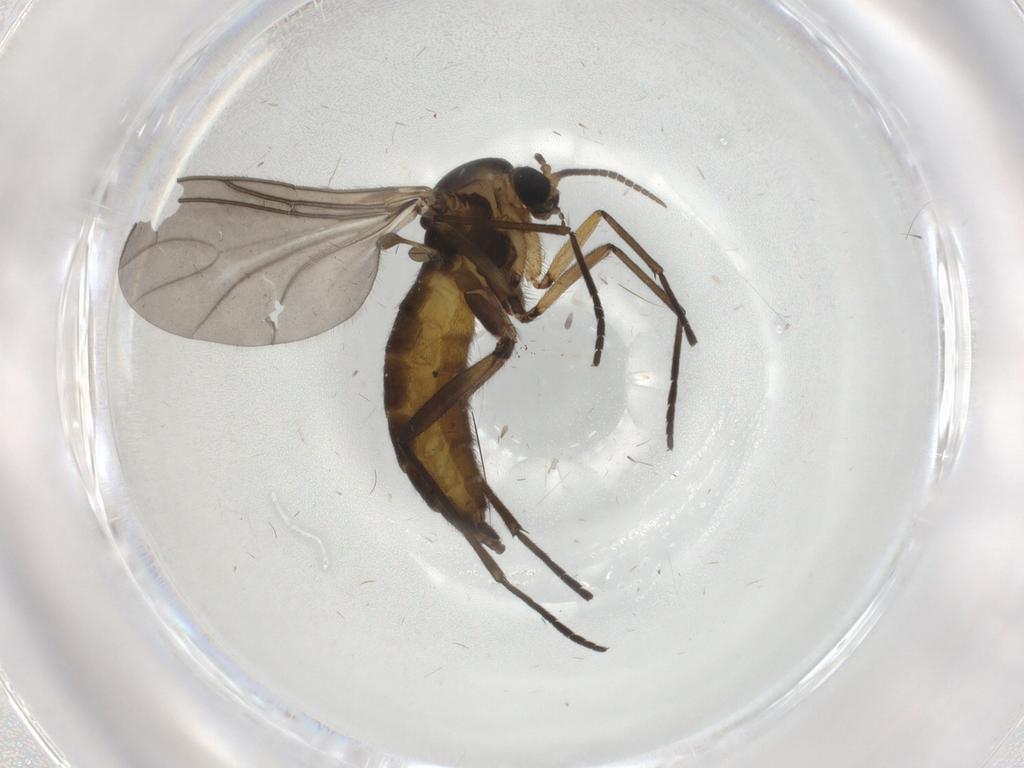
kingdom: Animalia
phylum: Arthropoda
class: Insecta
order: Diptera
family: Sciaridae
